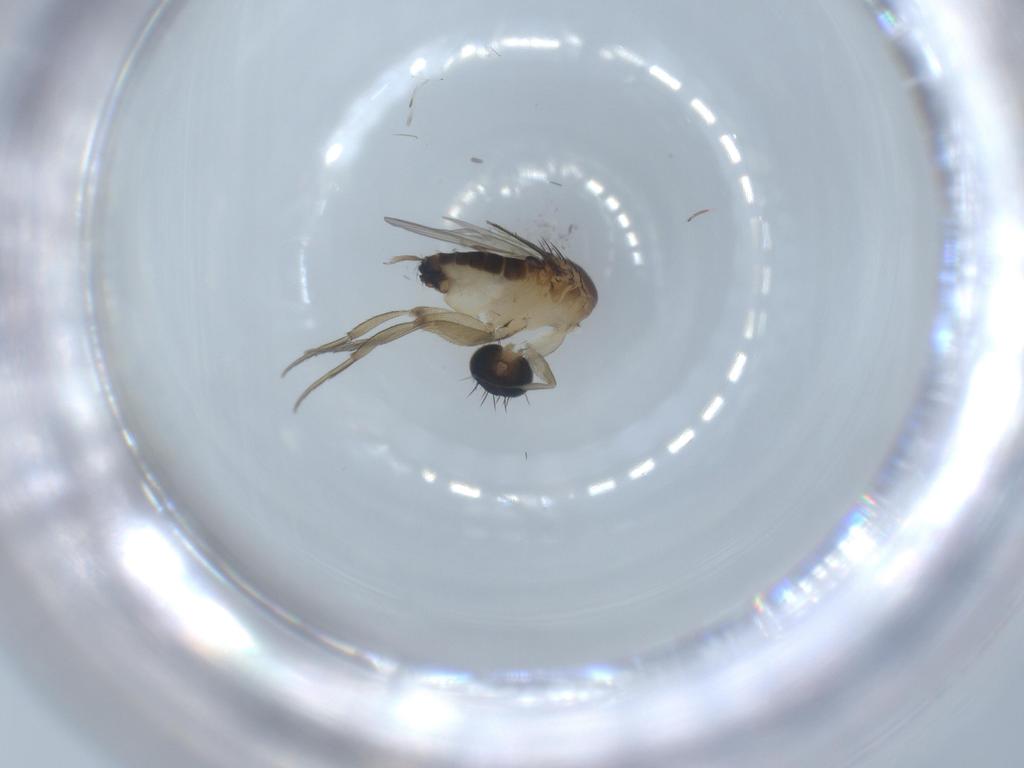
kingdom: Animalia
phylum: Arthropoda
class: Insecta
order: Diptera
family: Phoridae
